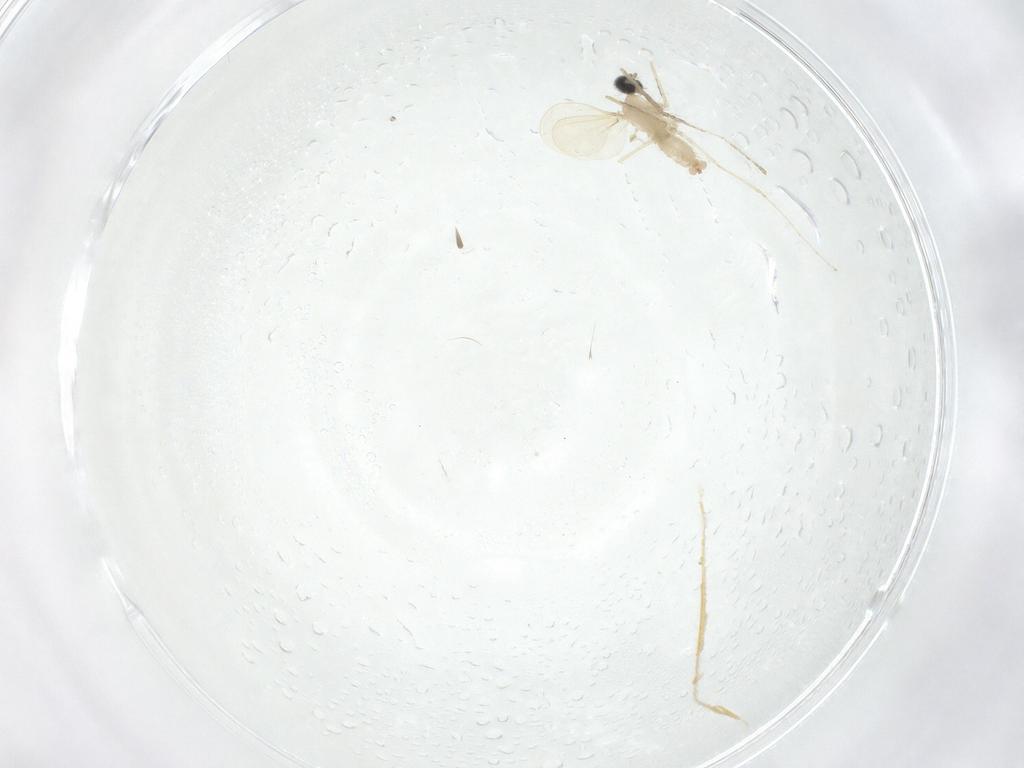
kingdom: Animalia
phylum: Arthropoda
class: Insecta
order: Diptera
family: Cecidomyiidae
